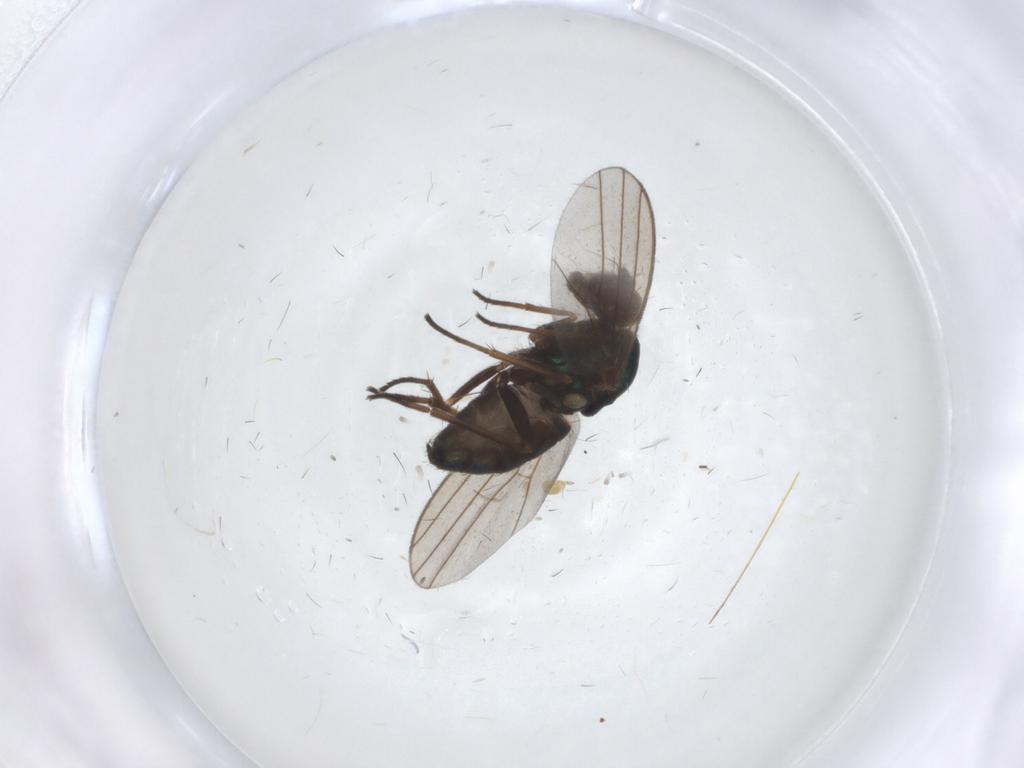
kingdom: Animalia
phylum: Arthropoda
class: Insecta
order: Diptera
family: Dolichopodidae
